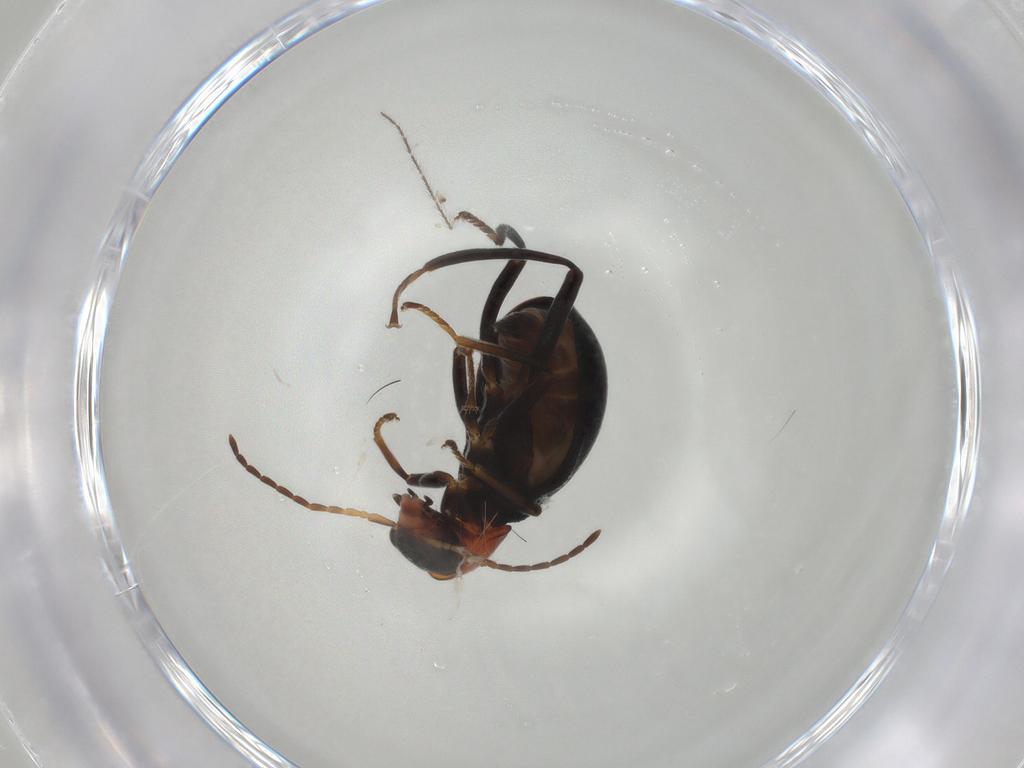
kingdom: Animalia
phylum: Arthropoda
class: Insecta
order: Coleoptera
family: Melyridae
